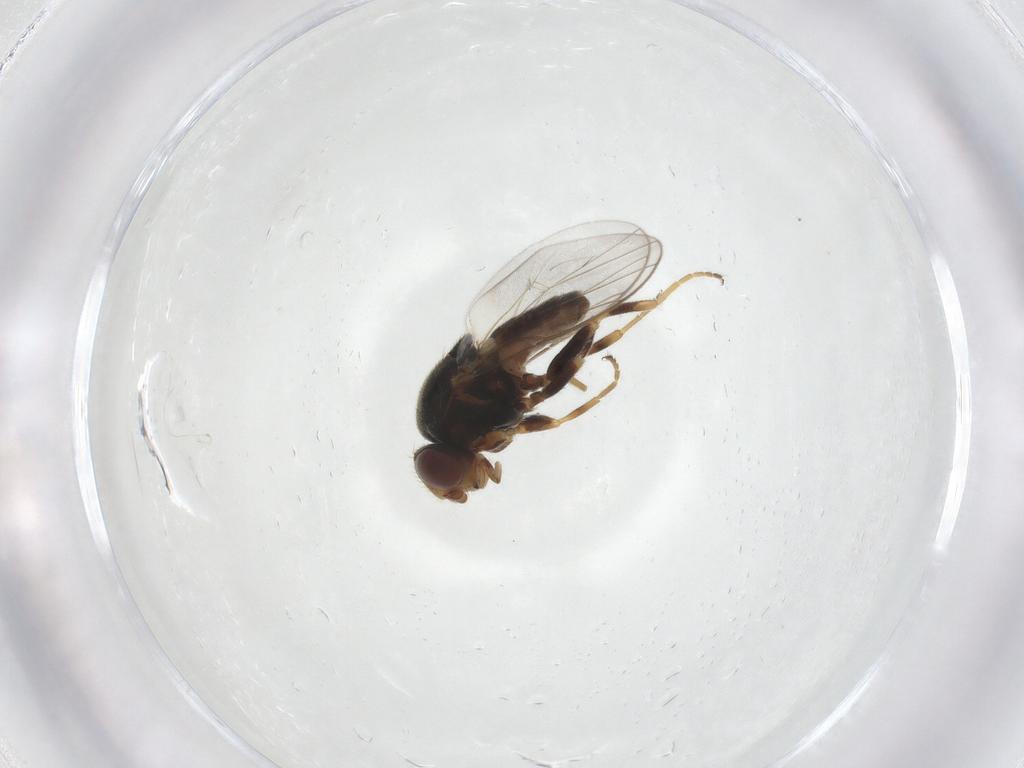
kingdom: Animalia
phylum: Arthropoda
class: Insecta
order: Diptera
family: Chloropidae
